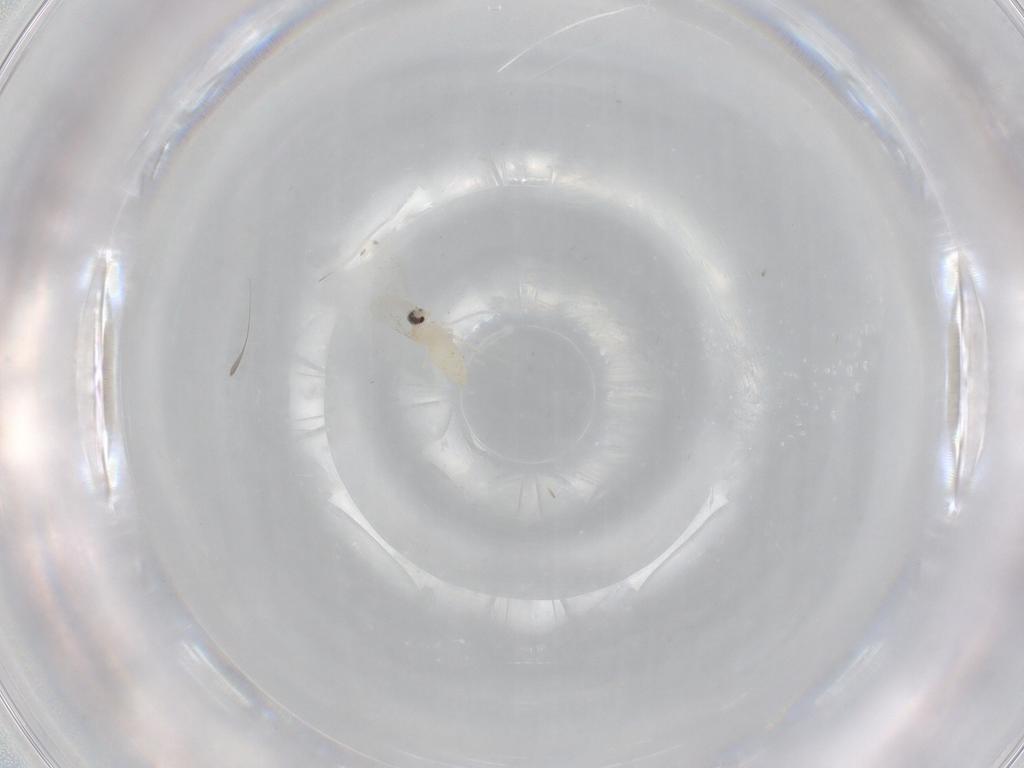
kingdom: Animalia
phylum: Arthropoda
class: Insecta
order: Diptera
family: Cecidomyiidae
